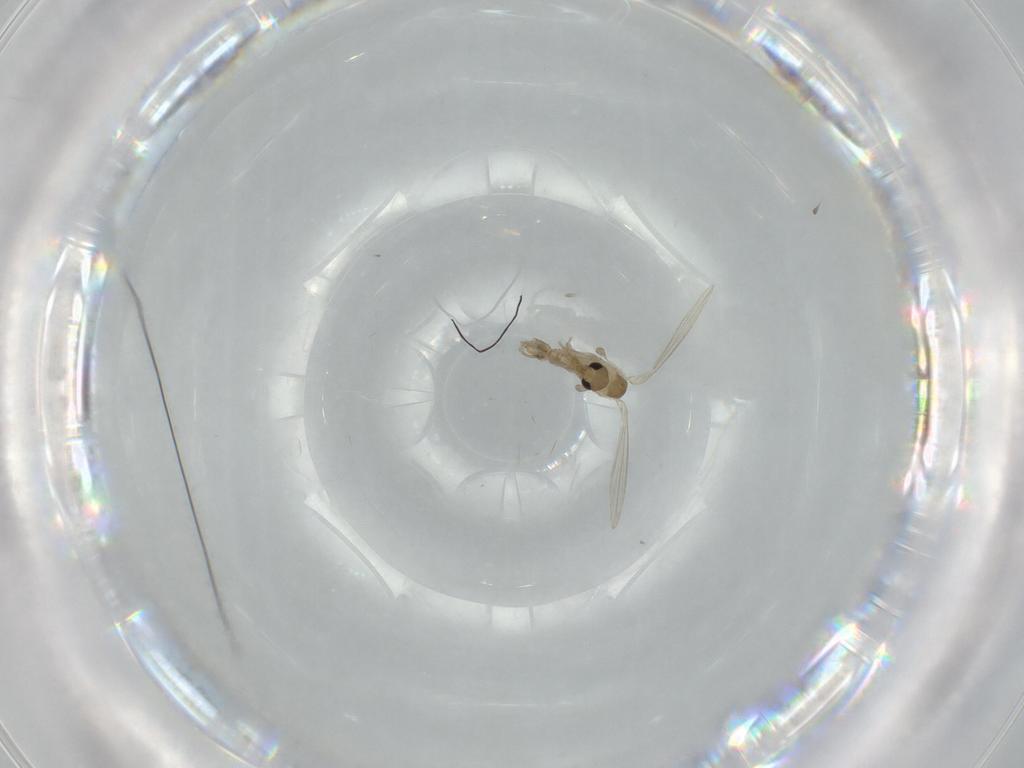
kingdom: Animalia
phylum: Arthropoda
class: Insecta
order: Diptera
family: Psychodidae
